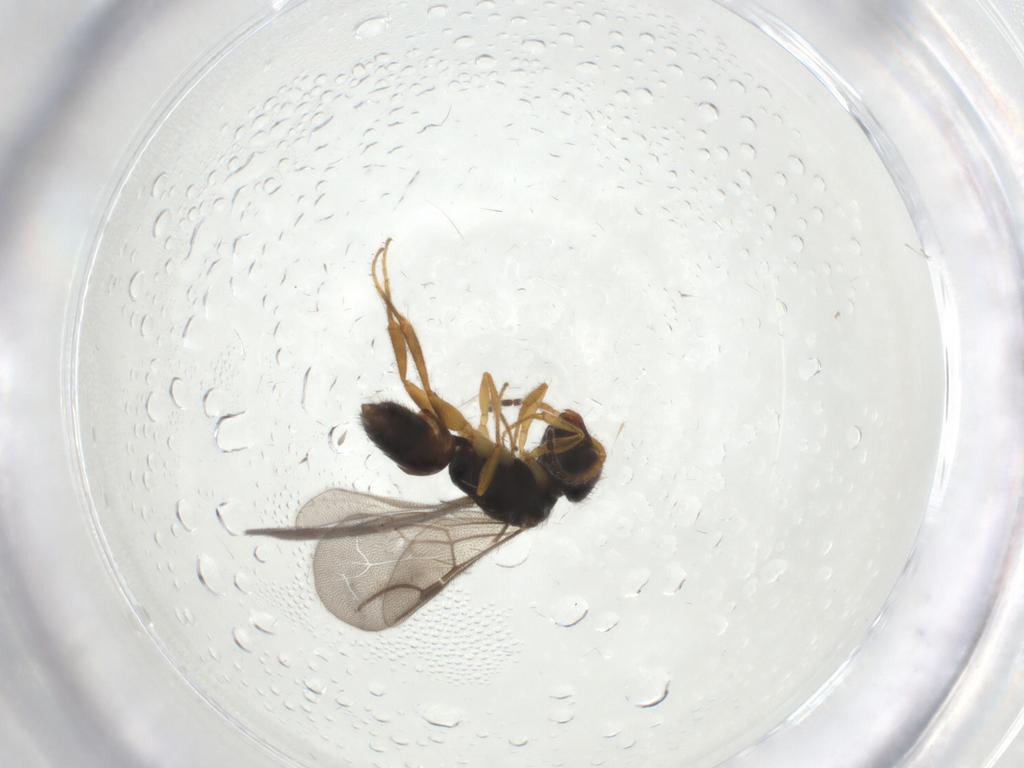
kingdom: Animalia
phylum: Arthropoda
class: Insecta
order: Hymenoptera
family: Bethylidae
